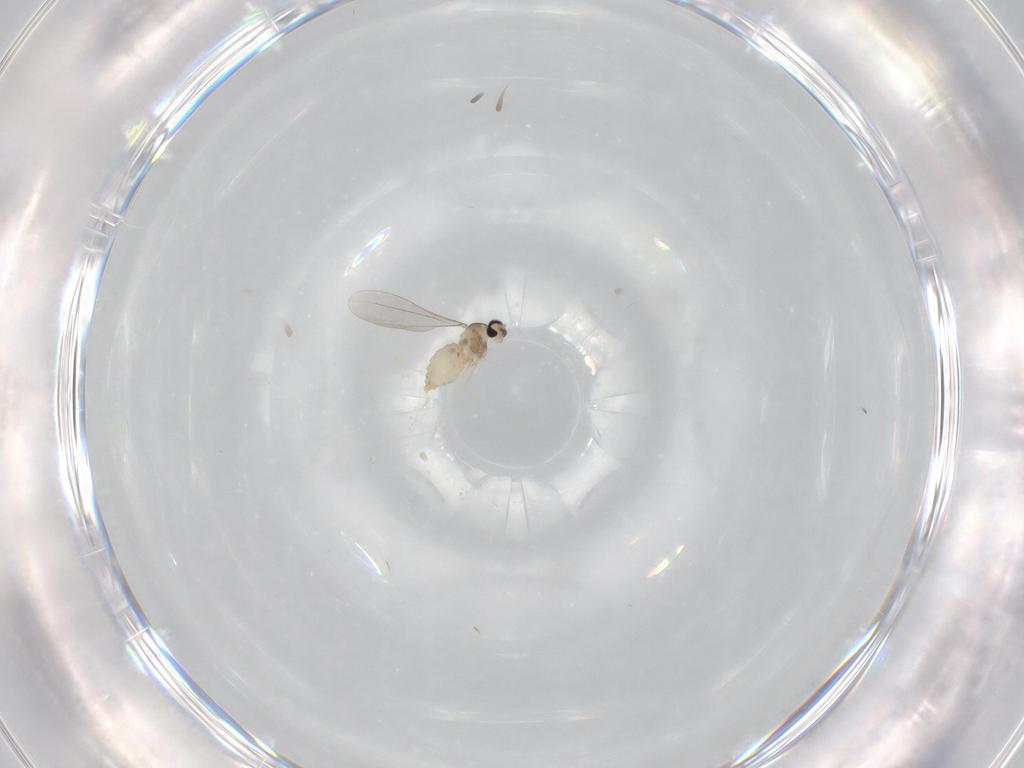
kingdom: Animalia
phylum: Arthropoda
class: Insecta
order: Diptera
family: Cecidomyiidae
